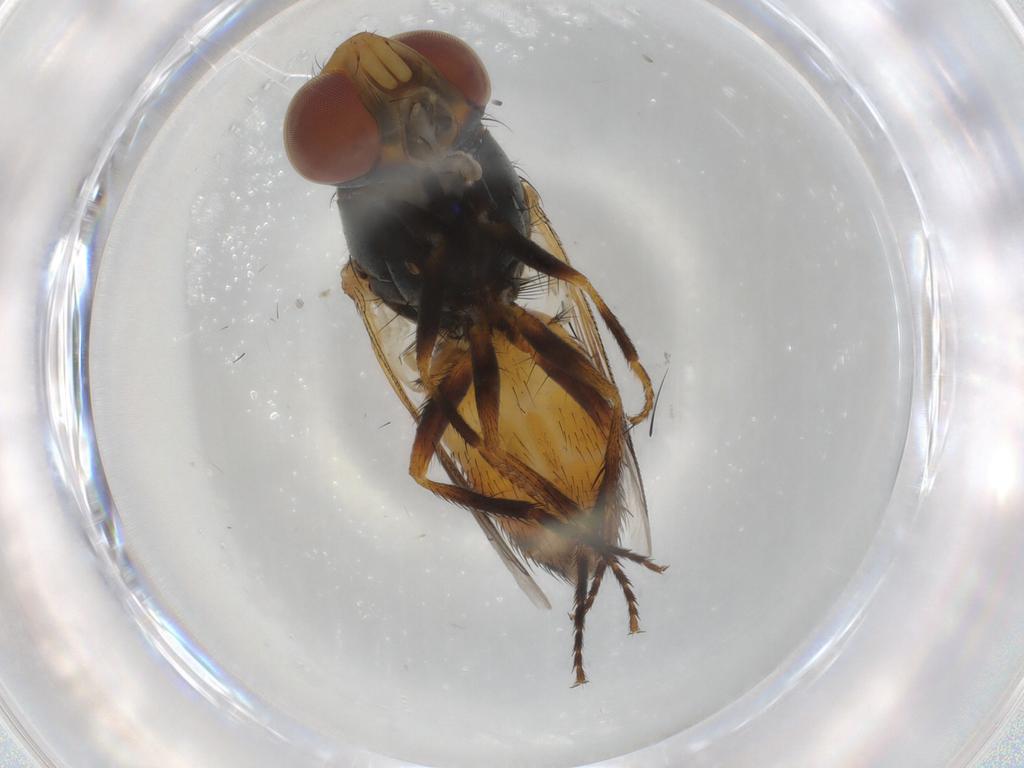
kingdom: Animalia
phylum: Arthropoda
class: Insecta
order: Diptera
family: Sarcophagidae
